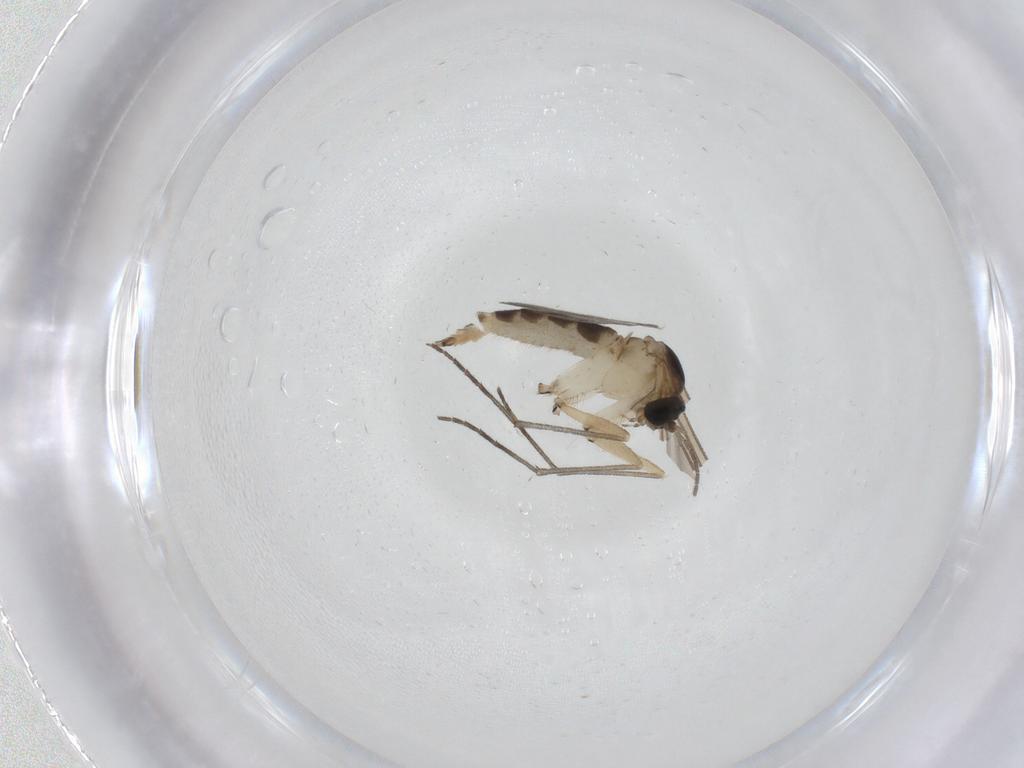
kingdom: Animalia
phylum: Arthropoda
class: Insecta
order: Diptera
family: Sciaridae
